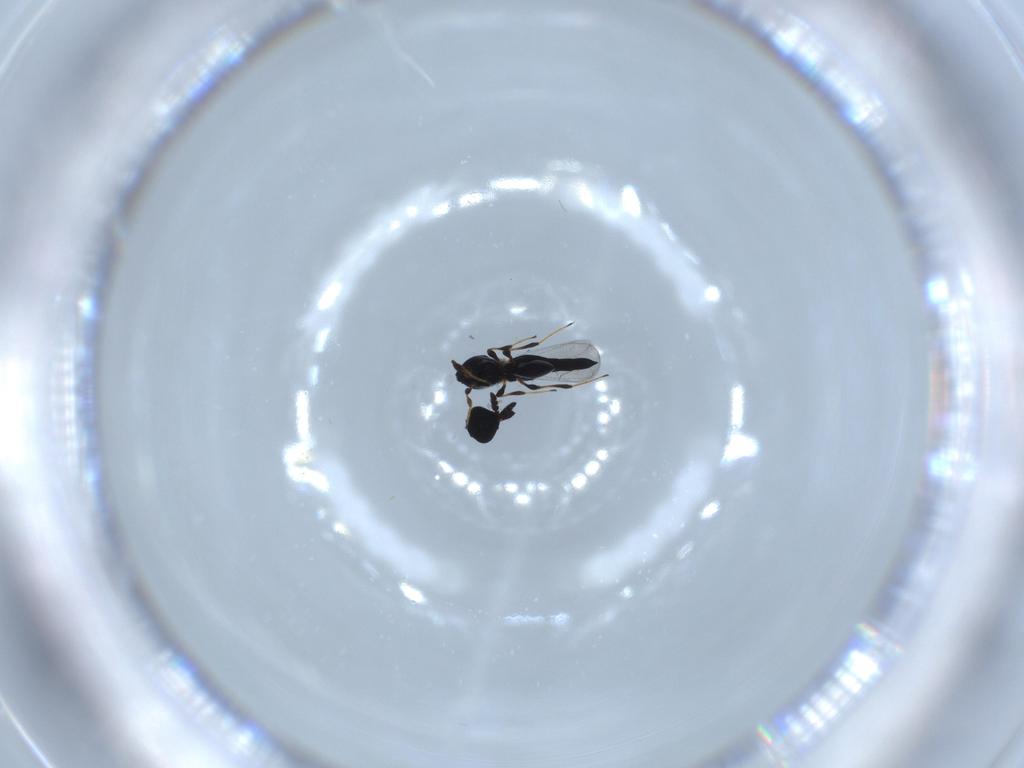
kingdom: Animalia
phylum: Arthropoda
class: Insecta
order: Hymenoptera
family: Platygastridae
